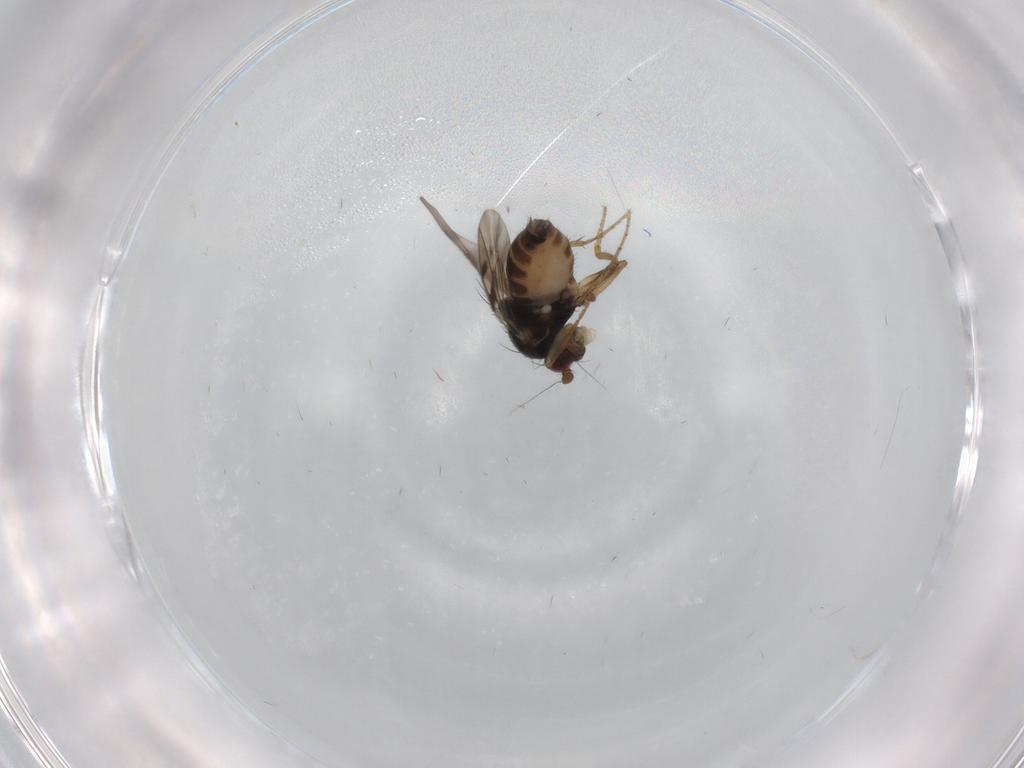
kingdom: Animalia
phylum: Arthropoda
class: Insecta
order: Diptera
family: Sphaeroceridae
